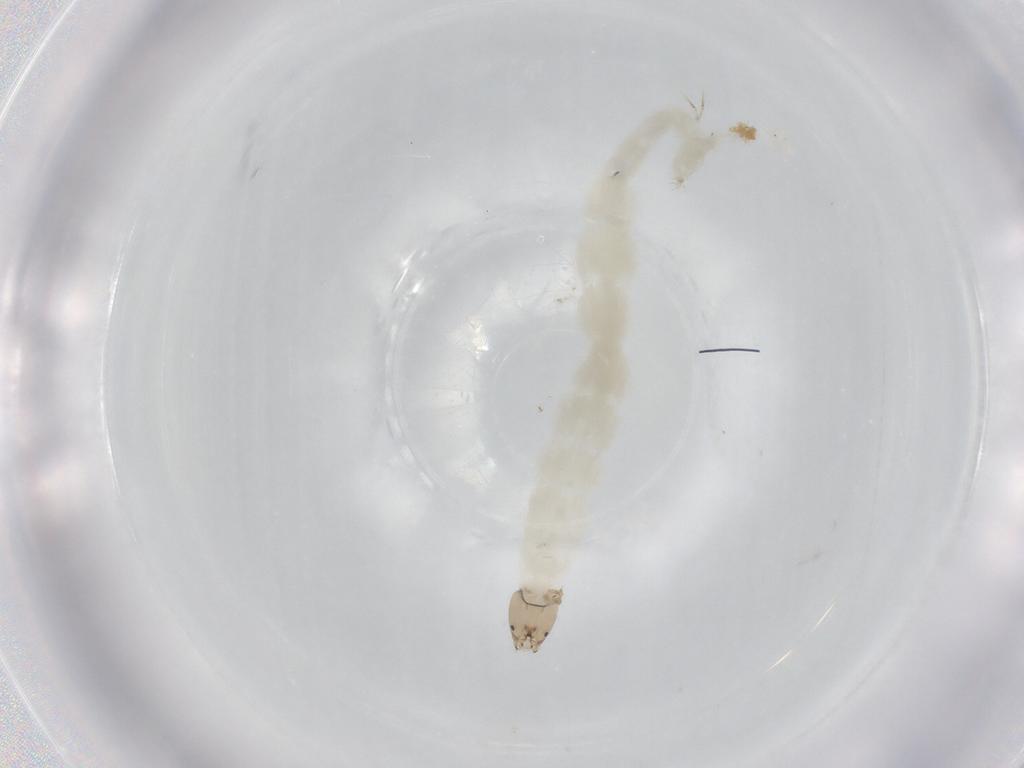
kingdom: Animalia
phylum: Arthropoda
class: Insecta
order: Diptera
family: Chironomidae
